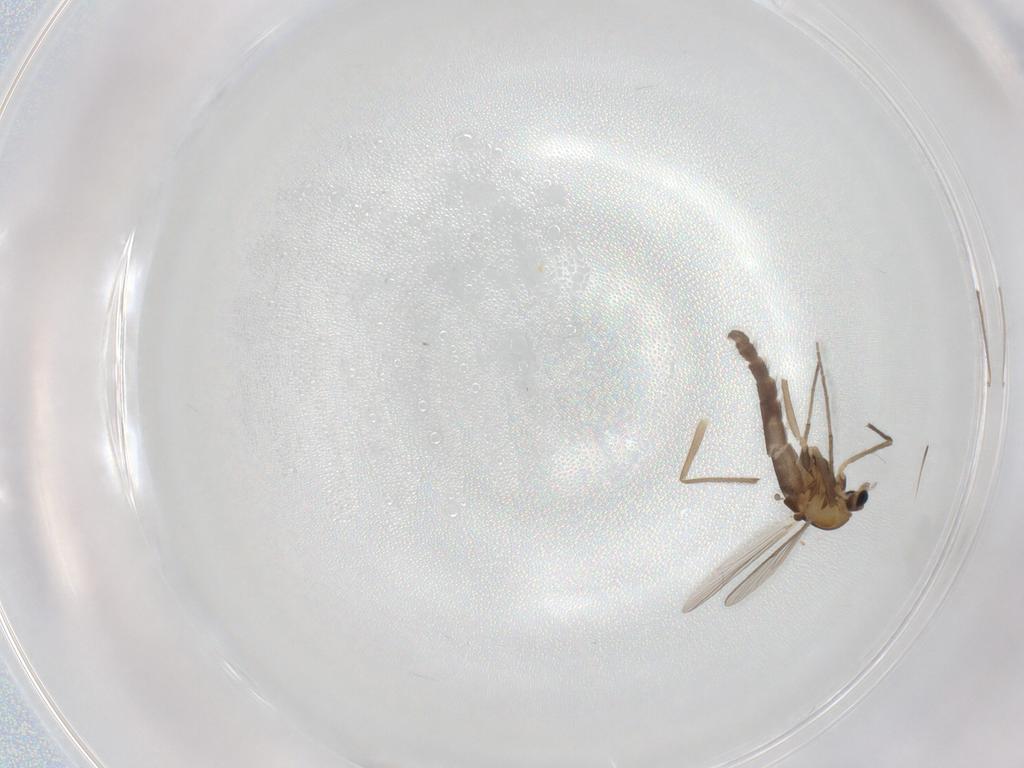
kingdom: Animalia
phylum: Arthropoda
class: Insecta
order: Diptera
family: Chironomidae
